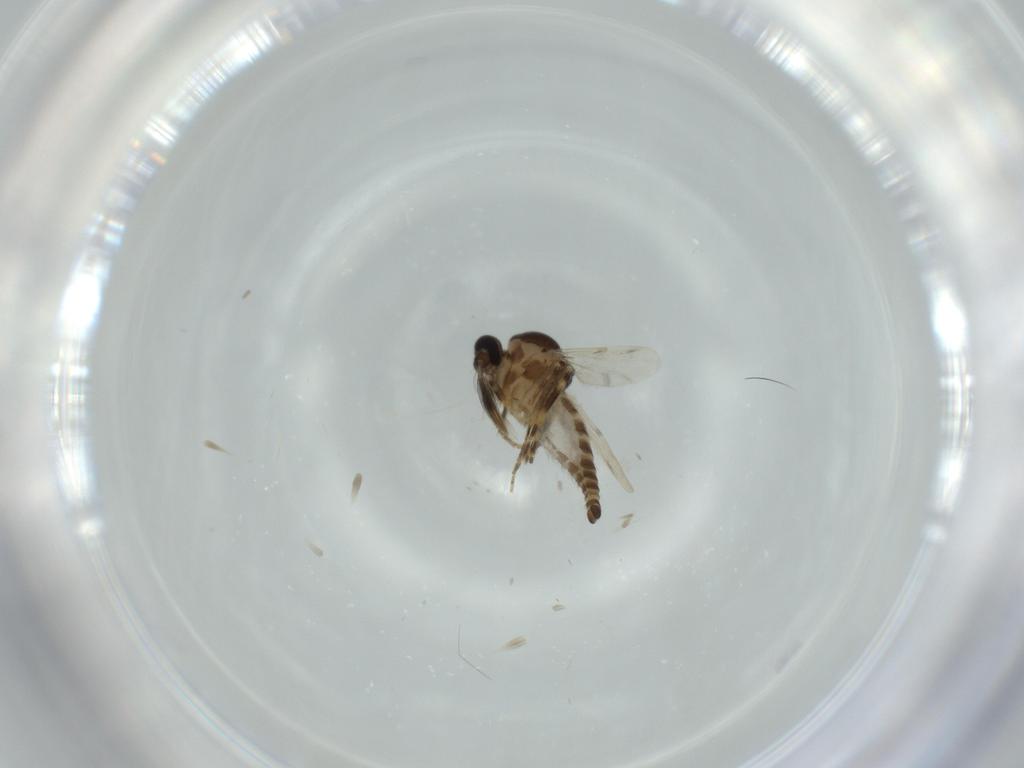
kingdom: Animalia
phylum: Arthropoda
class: Insecta
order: Diptera
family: Ceratopogonidae
